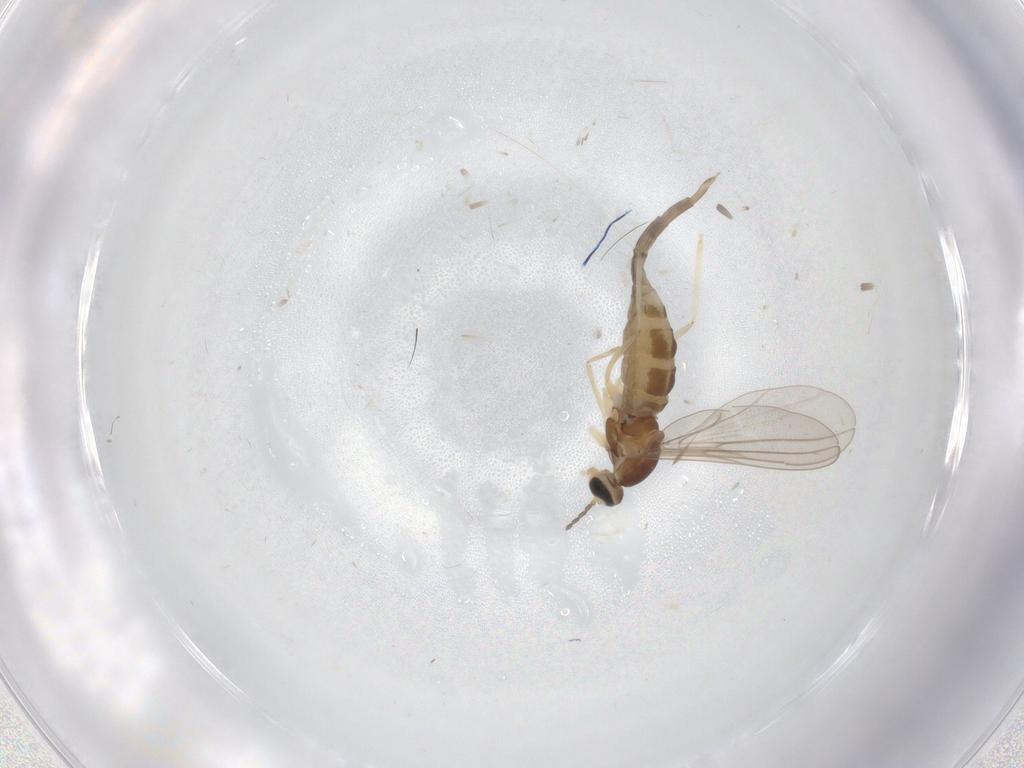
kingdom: Animalia
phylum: Arthropoda
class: Insecta
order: Diptera
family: Cecidomyiidae
